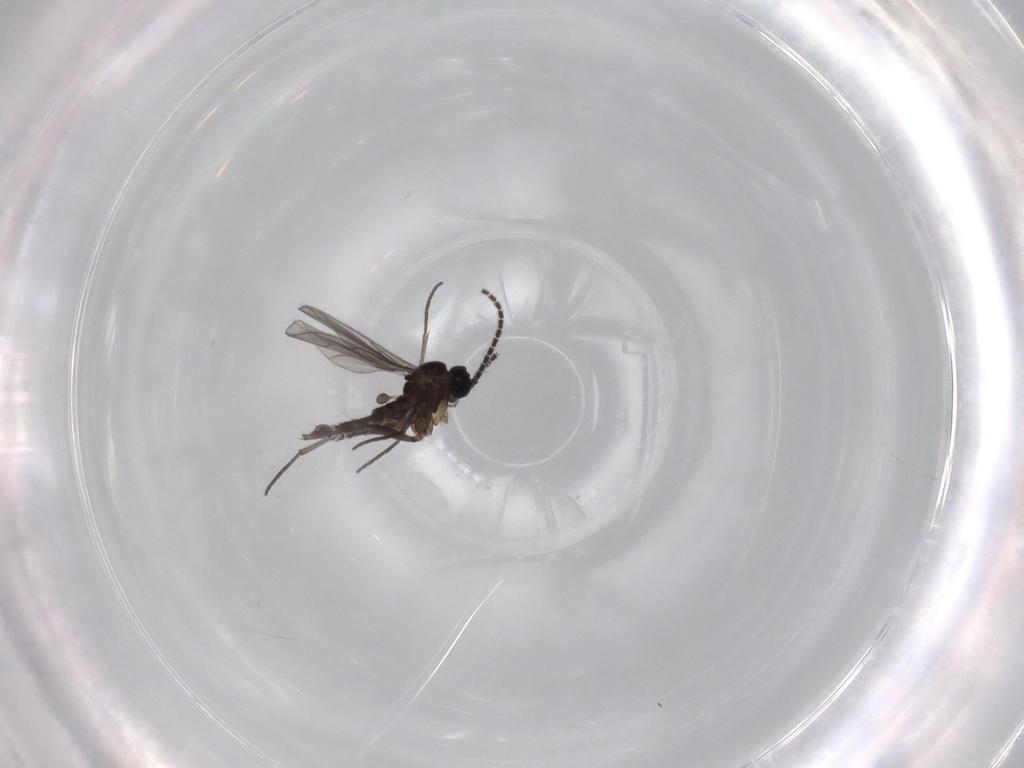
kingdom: Animalia
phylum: Arthropoda
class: Insecta
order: Diptera
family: Sciaridae
